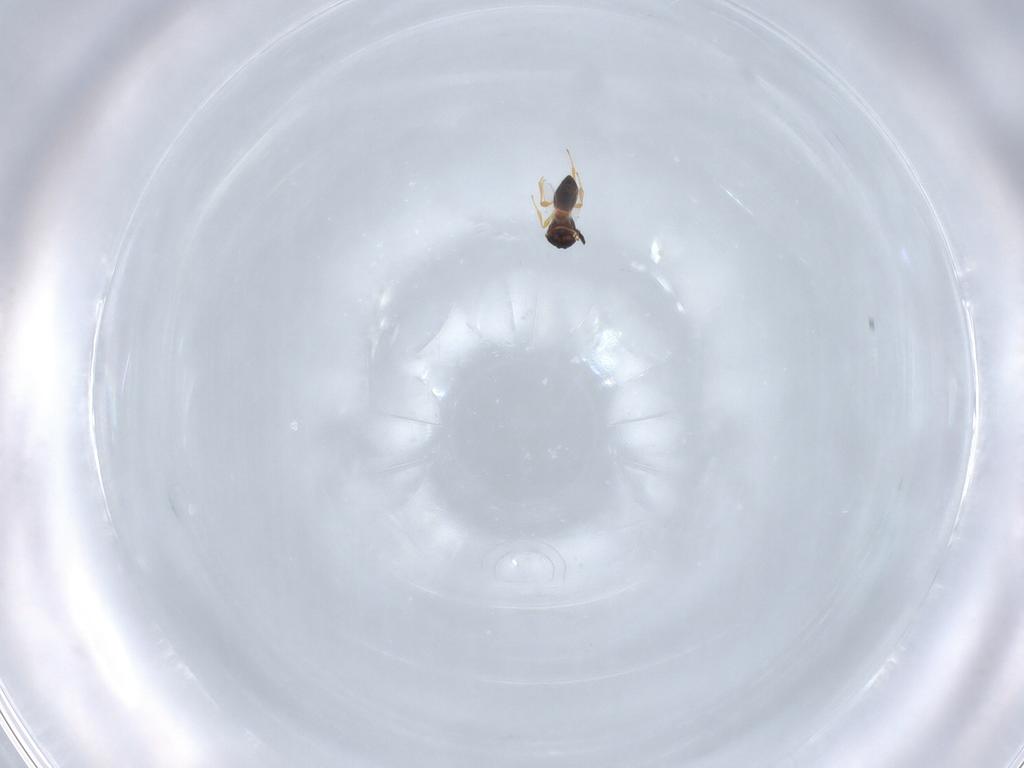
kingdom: Animalia
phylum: Arthropoda
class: Insecta
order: Hymenoptera
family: Platygastridae
